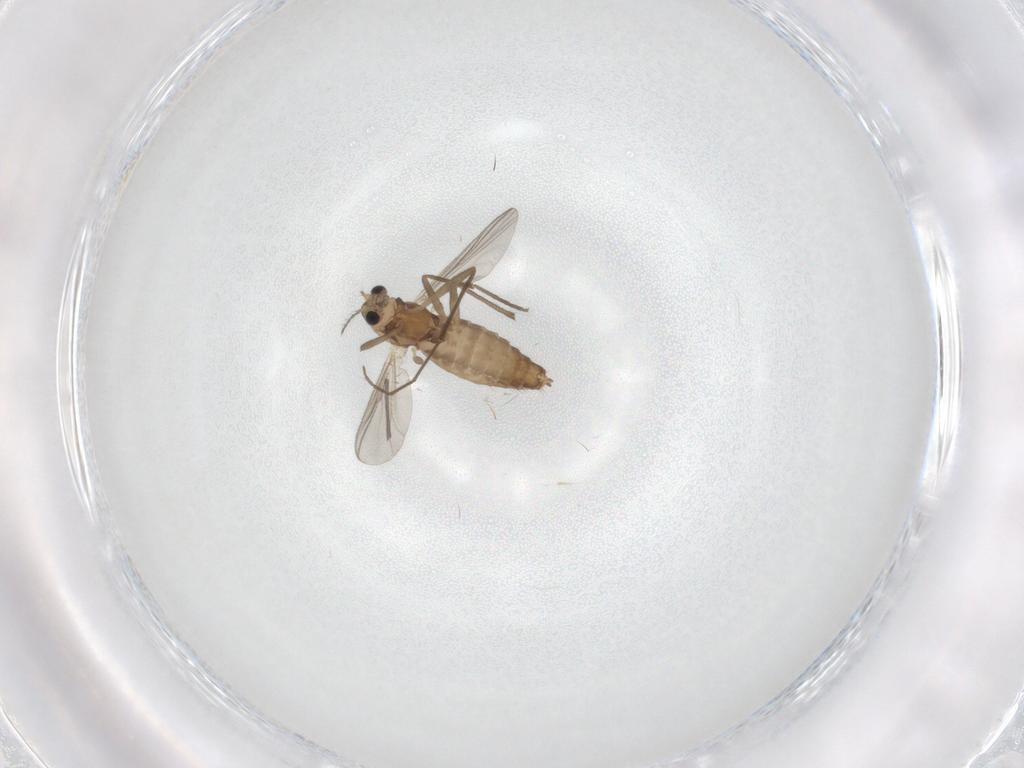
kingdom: Animalia
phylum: Arthropoda
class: Insecta
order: Diptera
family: Chironomidae
